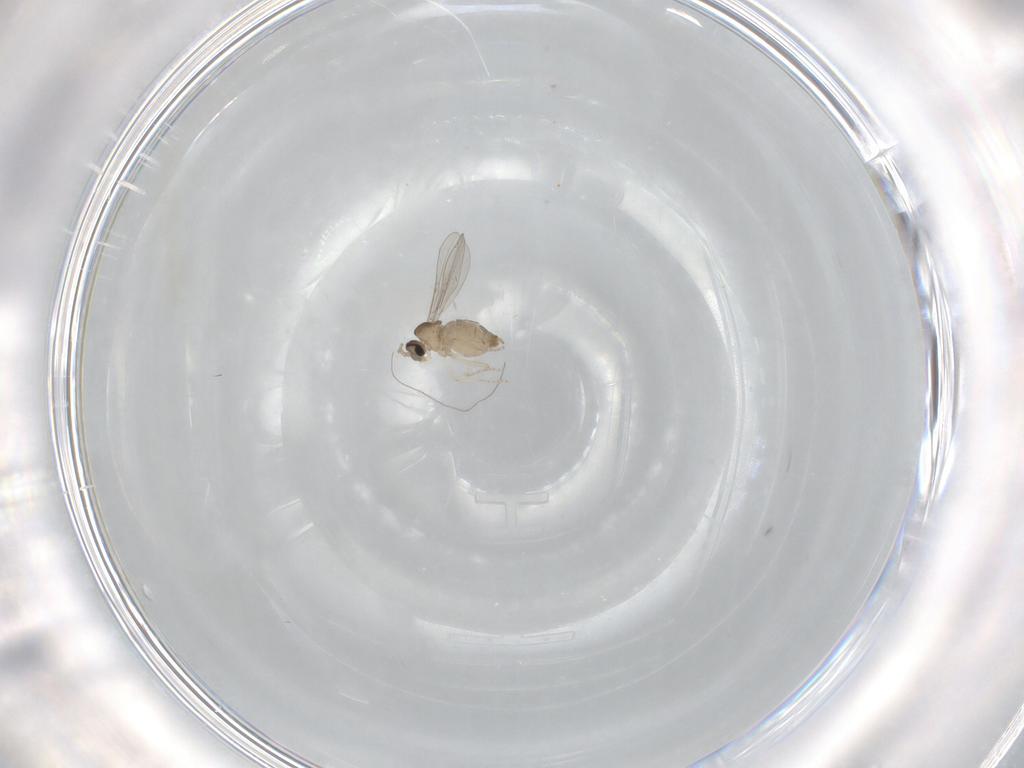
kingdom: Animalia
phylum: Arthropoda
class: Insecta
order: Diptera
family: Cecidomyiidae
